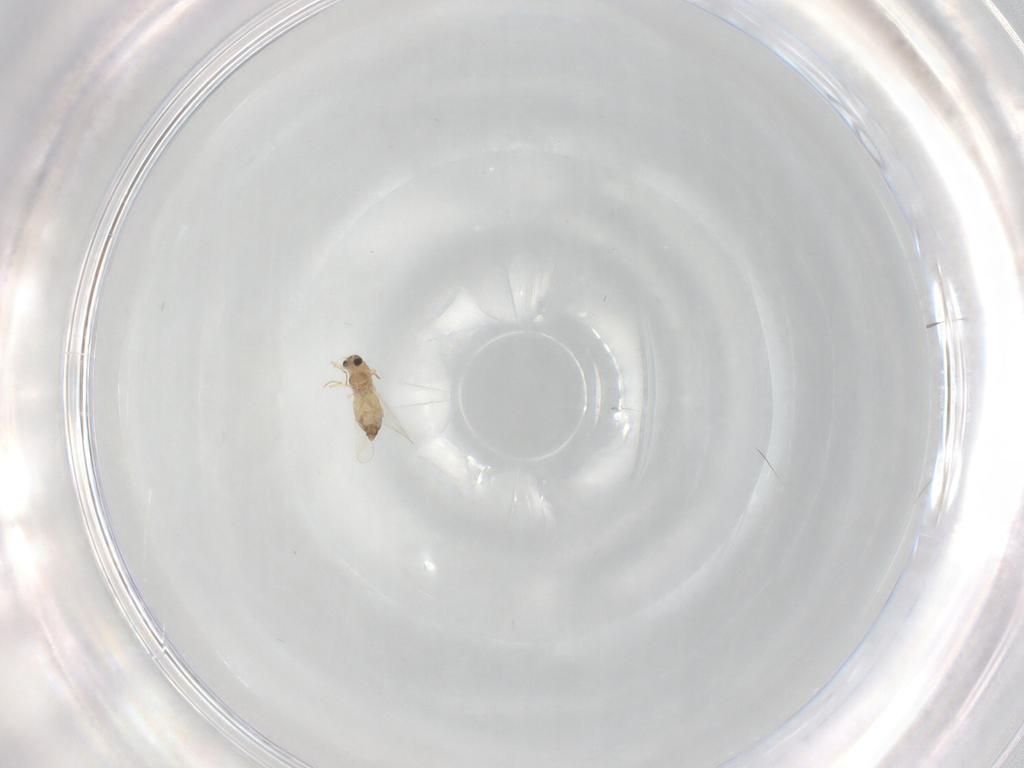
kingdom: Animalia
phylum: Arthropoda
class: Insecta
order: Diptera
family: Chironomidae
